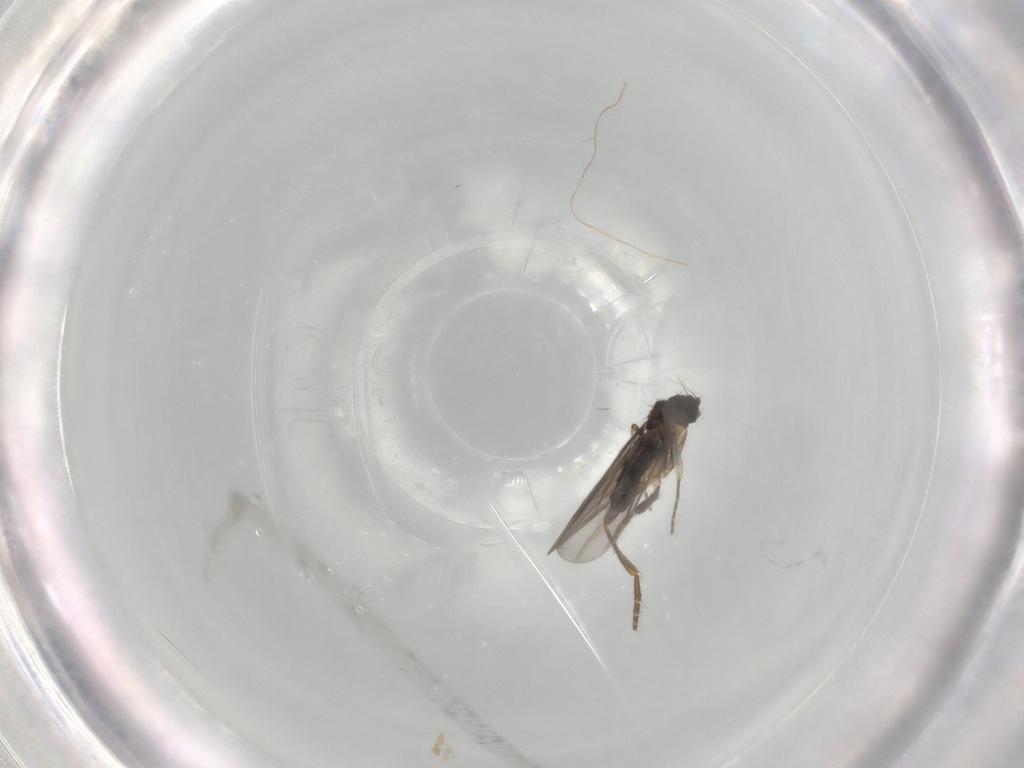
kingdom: Animalia
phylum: Arthropoda
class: Insecta
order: Diptera
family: Phoridae
